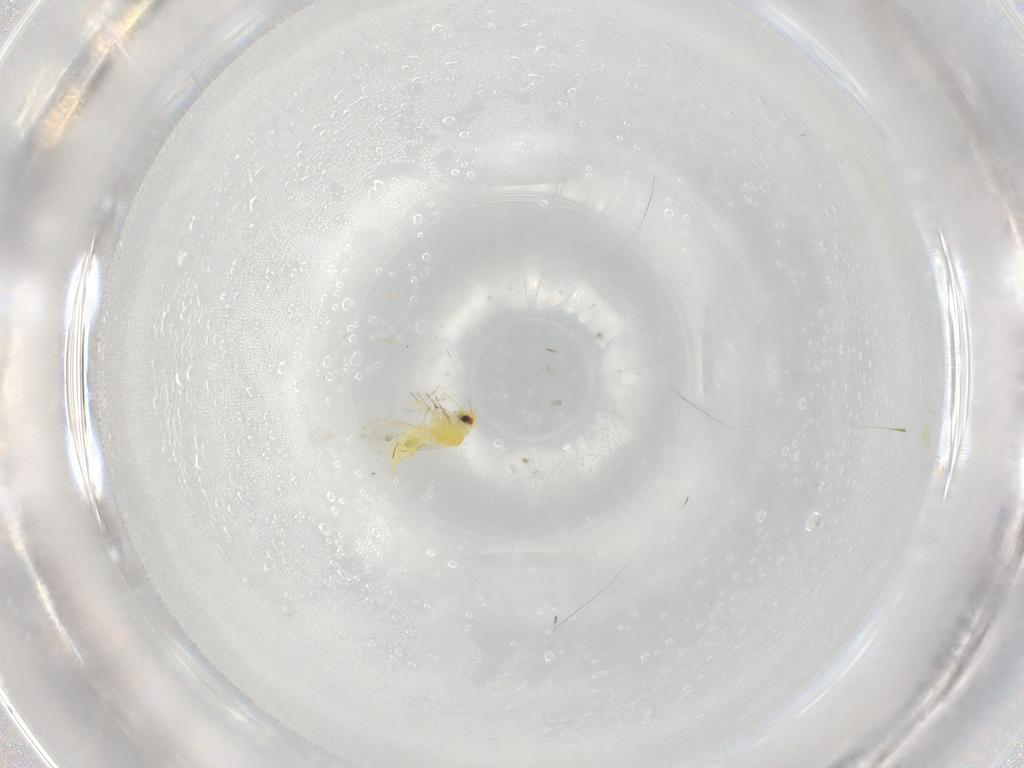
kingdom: Animalia
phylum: Arthropoda
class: Insecta
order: Hemiptera
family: Aleyrodidae
